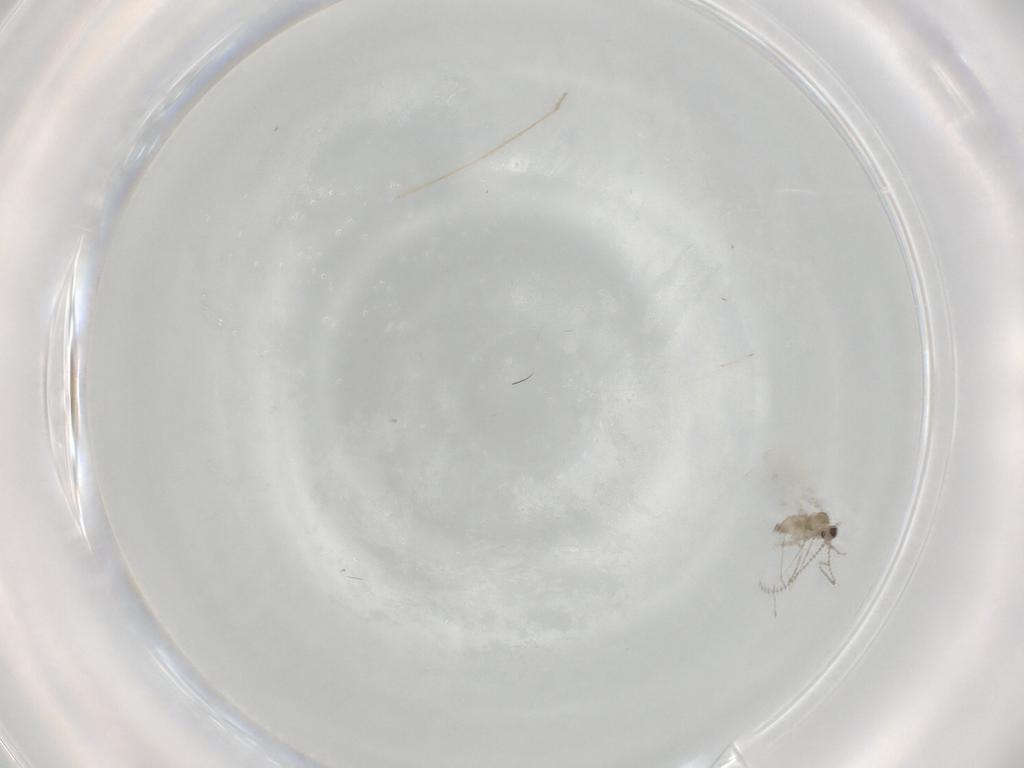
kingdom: Animalia
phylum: Arthropoda
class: Insecta
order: Diptera
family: Cecidomyiidae
